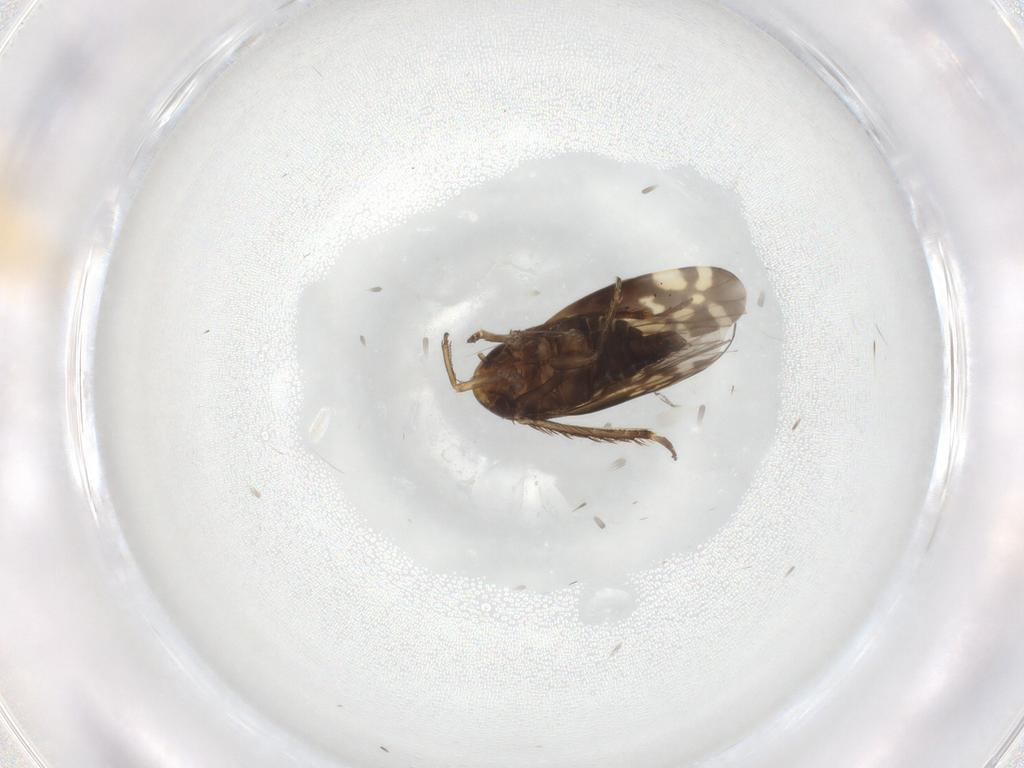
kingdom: Animalia
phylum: Arthropoda
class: Insecta
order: Hemiptera
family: Cicadellidae
